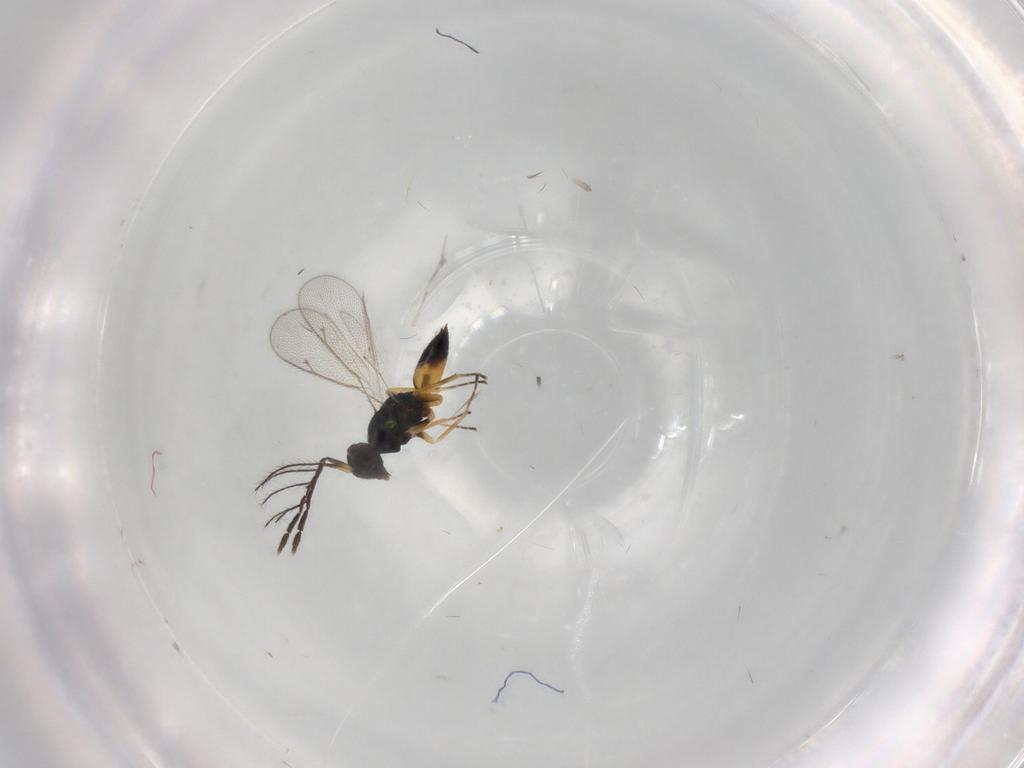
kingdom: Animalia
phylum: Arthropoda
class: Insecta
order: Hymenoptera
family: Eulophidae
